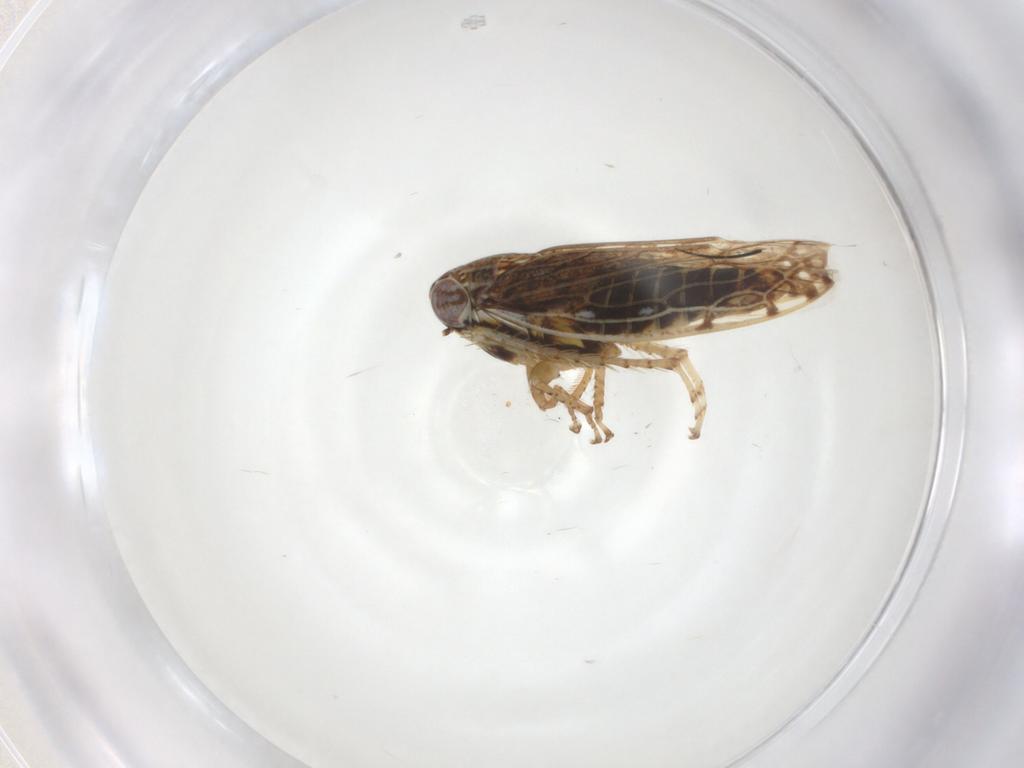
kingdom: Animalia
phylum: Arthropoda
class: Insecta
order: Hemiptera
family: Cicadellidae
